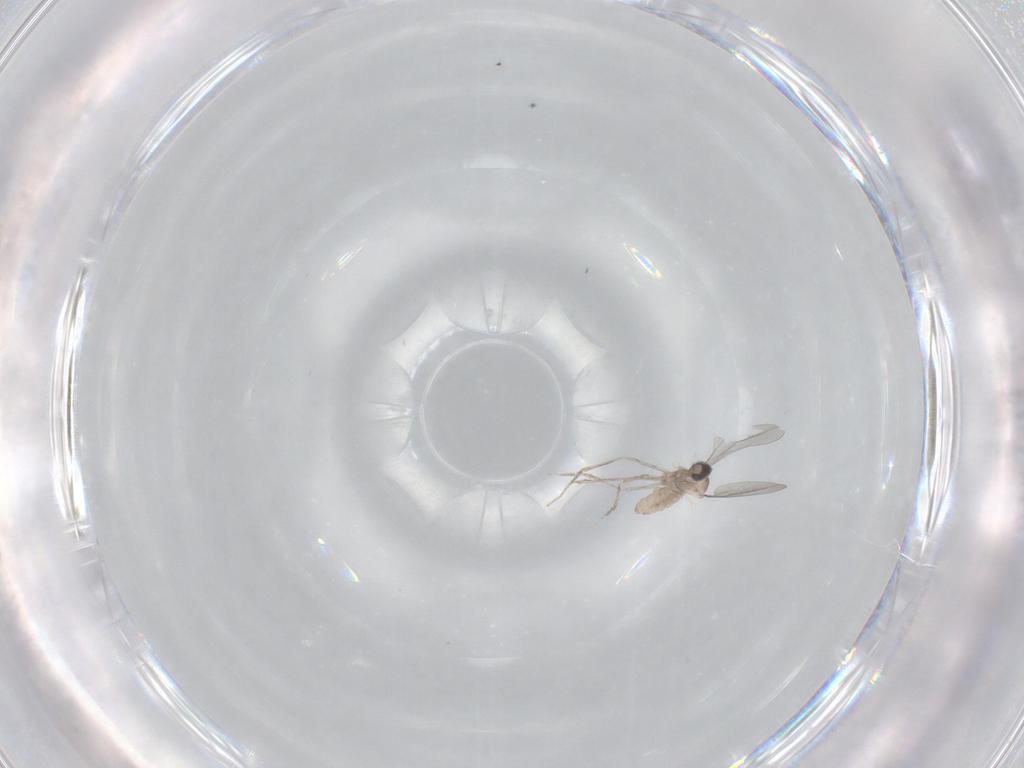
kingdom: Animalia
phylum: Arthropoda
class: Insecta
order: Diptera
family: Cecidomyiidae
